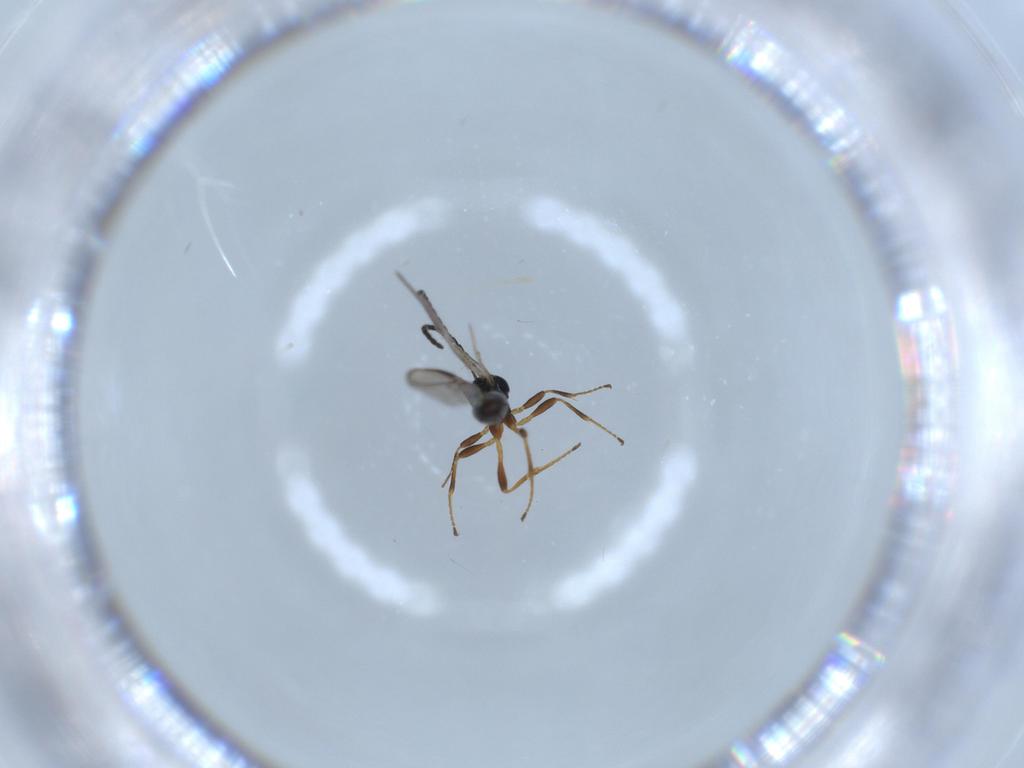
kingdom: Animalia
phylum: Arthropoda
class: Insecta
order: Hymenoptera
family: Braconidae
